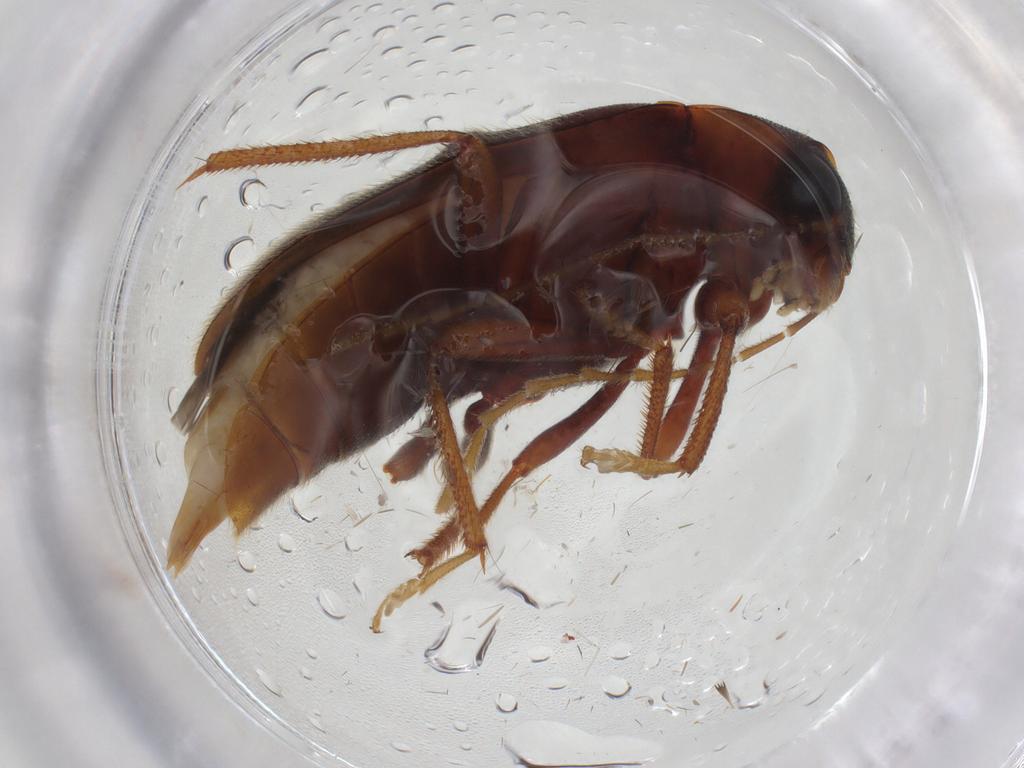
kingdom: Animalia
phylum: Arthropoda
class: Insecta
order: Coleoptera
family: Ptilodactylidae
